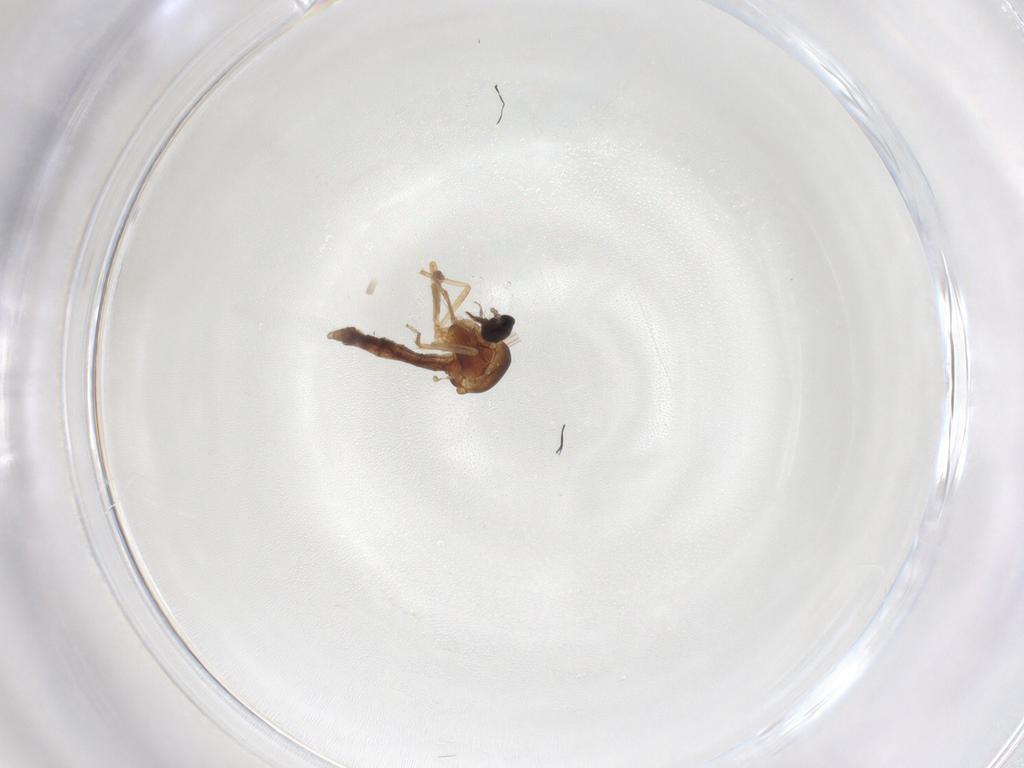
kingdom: Animalia
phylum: Arthropoda
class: Insecta
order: Diptera
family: Ceratopogonidae
